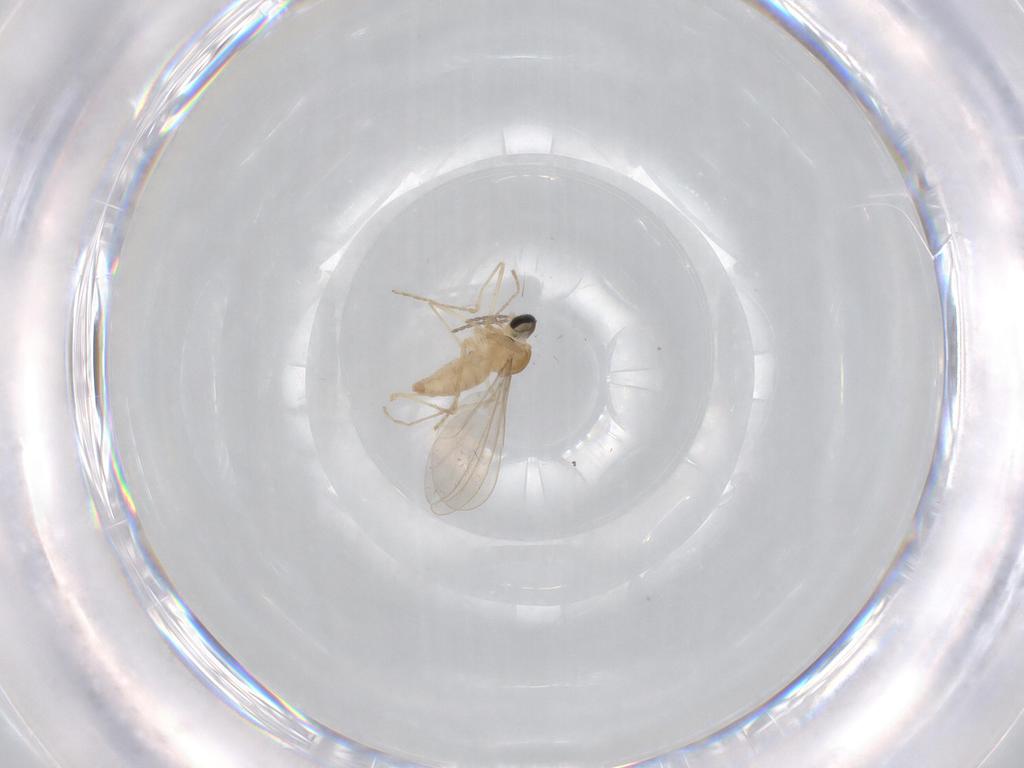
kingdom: Animalia
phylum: Arthropoda
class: Insecta
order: Diptera
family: Cecidomyiidae
